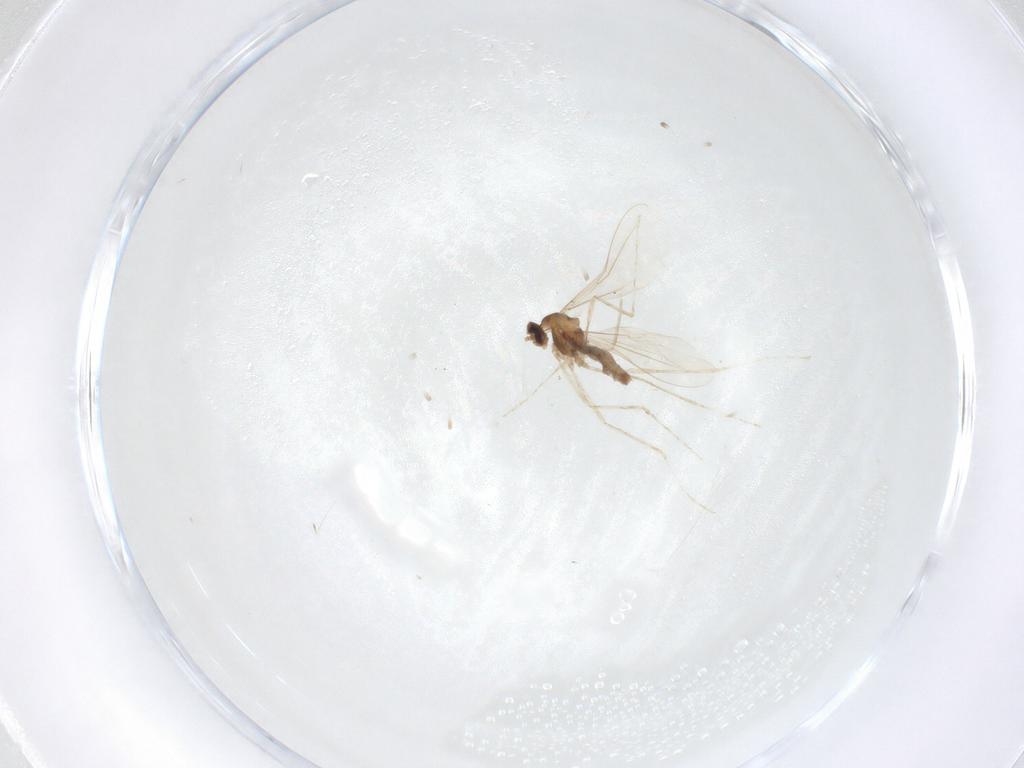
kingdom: Animalia
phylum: Arthropoda
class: Insecta
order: Diptera
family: Cecidomyiidae
